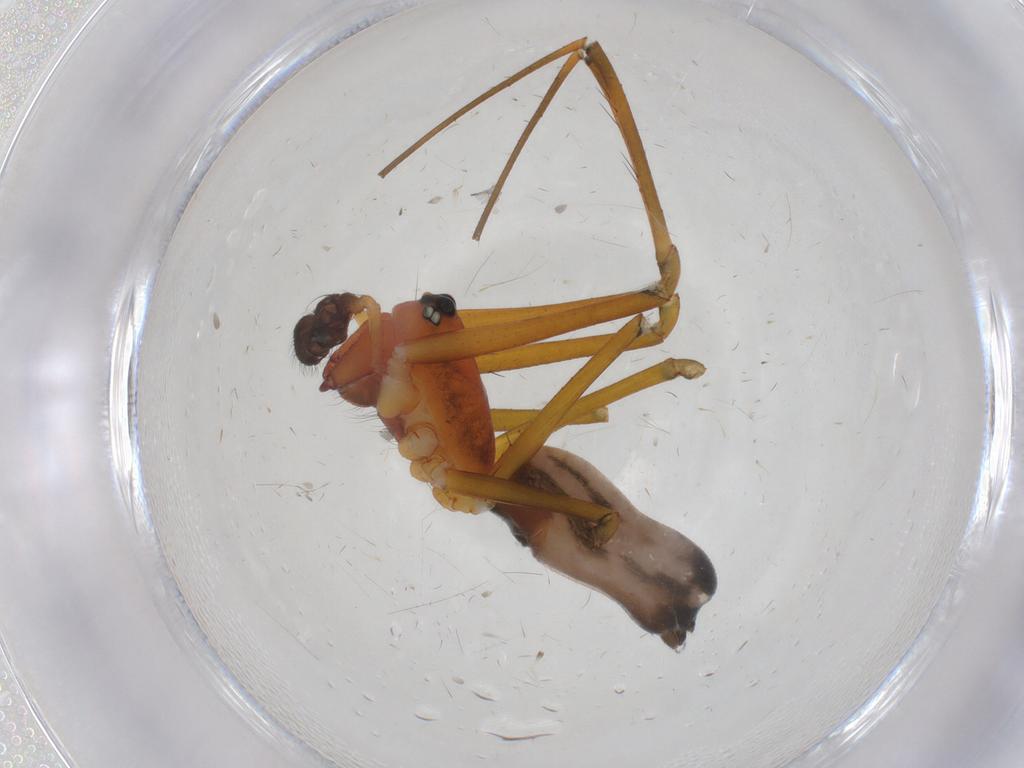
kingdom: Animalia
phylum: Arthropoda
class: Arachnida
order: Araneae
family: Linyphiidae
